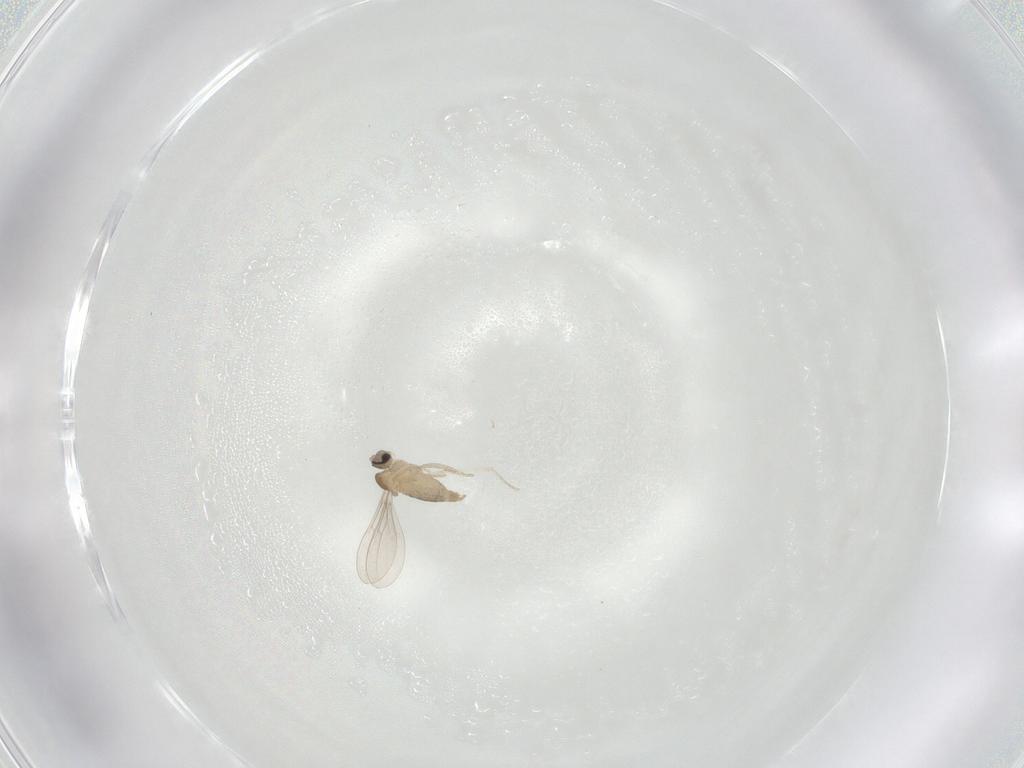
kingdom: Animalia
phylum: Arthropoda
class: Insecta
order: Diptera
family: Cecidomyiidae
